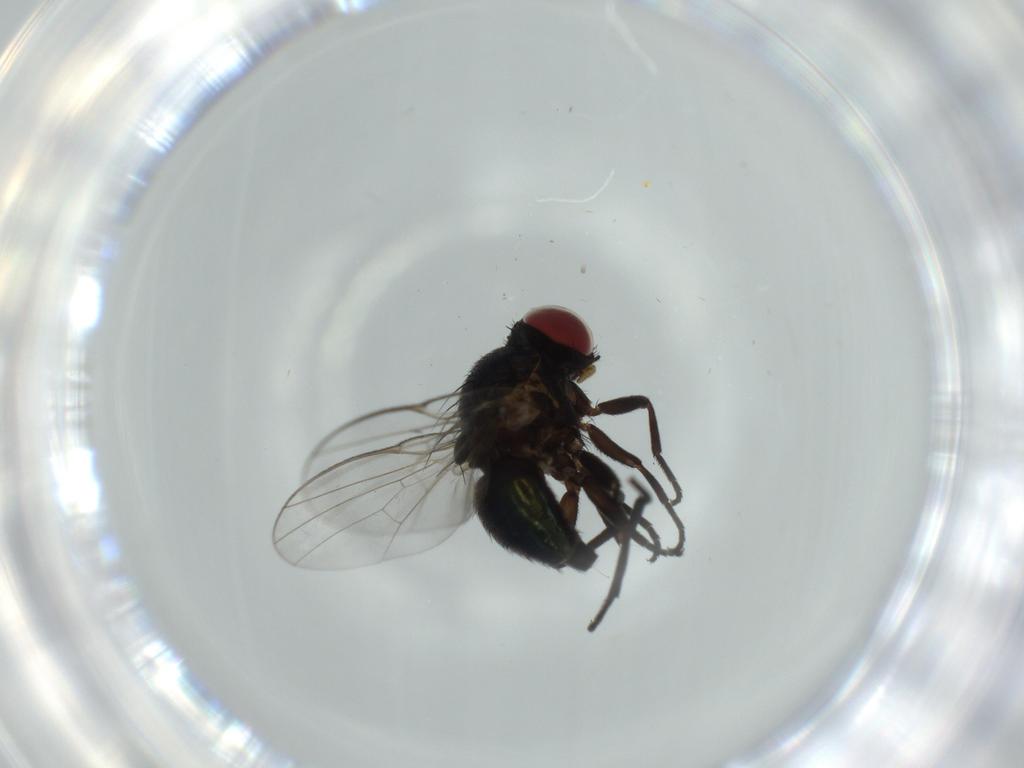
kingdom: Animalia
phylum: Arthropoda
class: Insecta
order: Diptera
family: Agromyzidae
